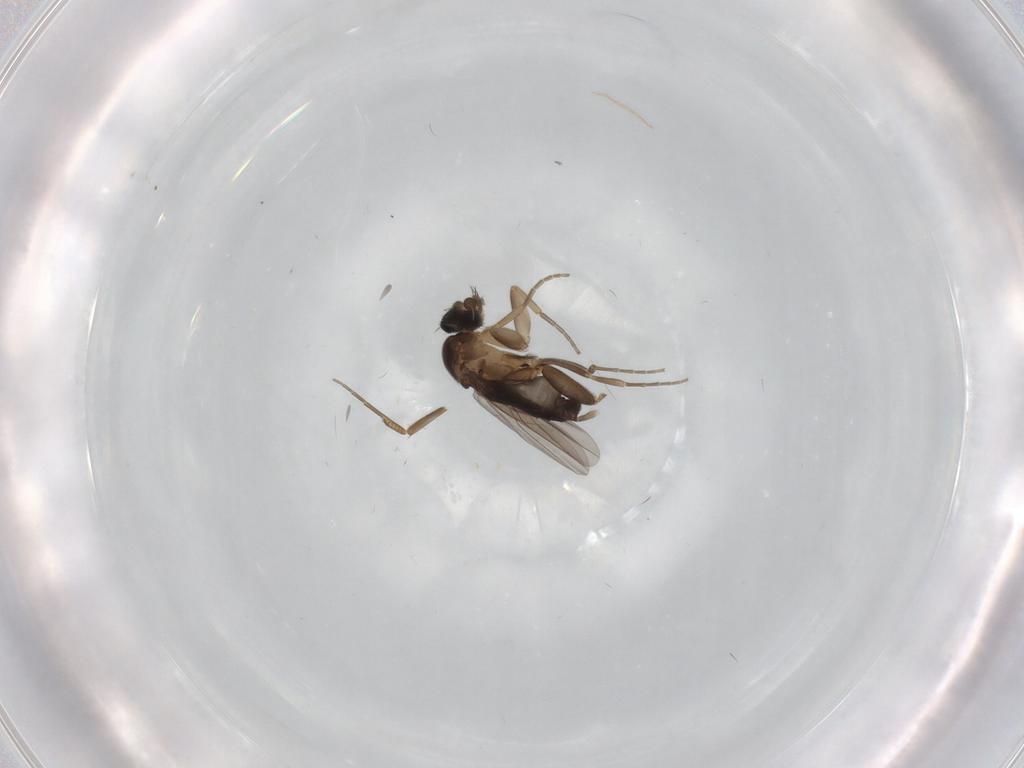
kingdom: Animalia
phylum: Arthropoda
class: Insecta
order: Diptera
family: Phoridae
